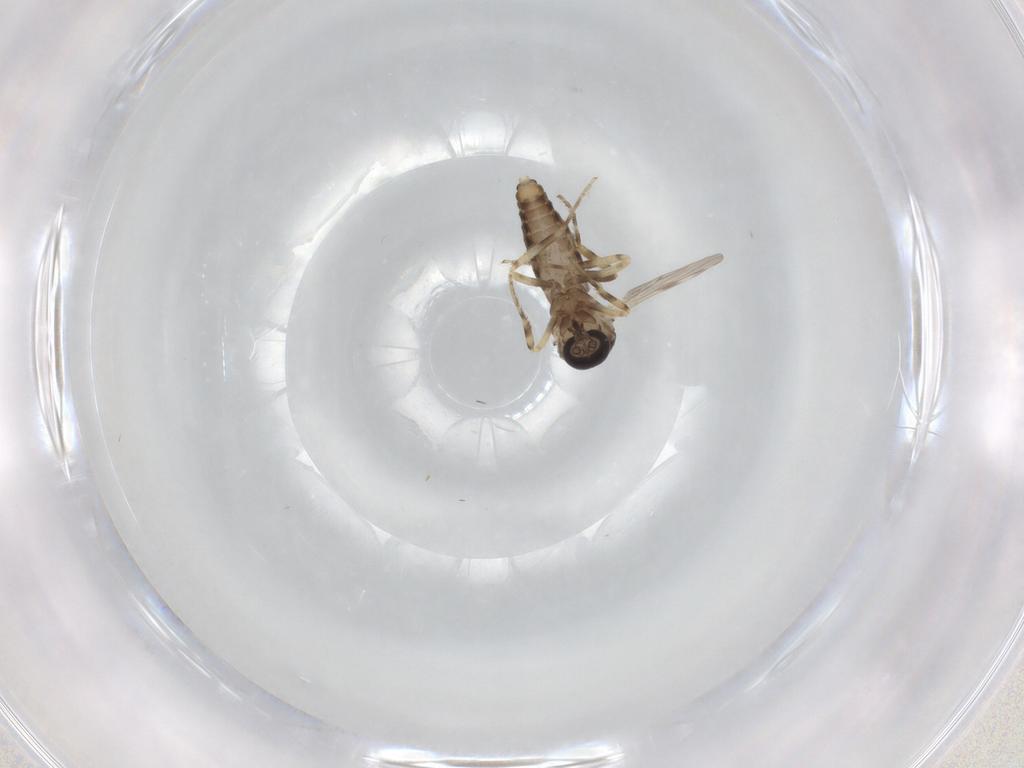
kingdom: Animalia
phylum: Arthropoda
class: Insecta
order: Diptera
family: Ceratopogonidae
